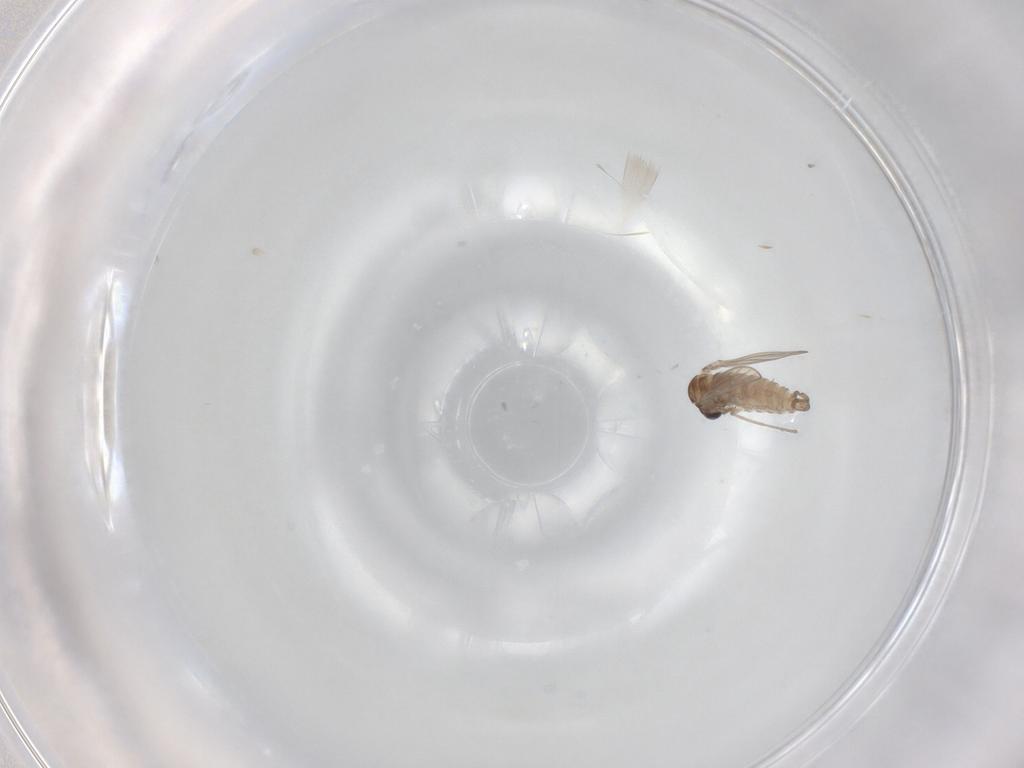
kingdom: Animalia
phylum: Arthropoda
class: Insecta
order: Diptera
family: Psychodidae
